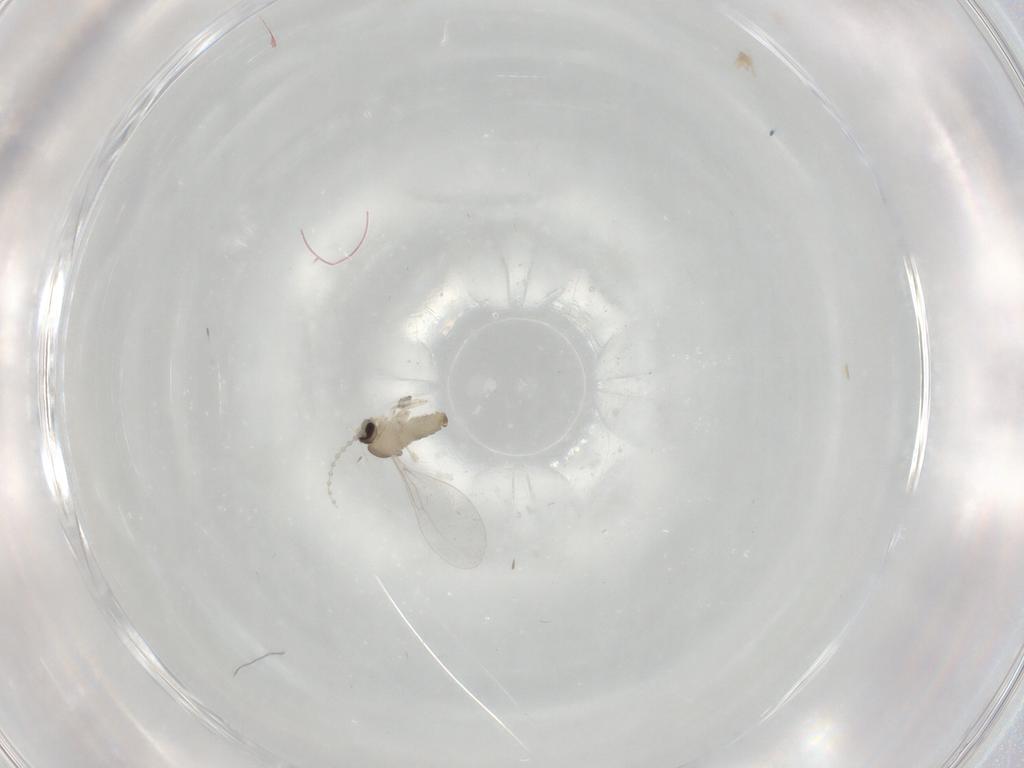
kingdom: Animalia
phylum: Arthropoda
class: Insecta
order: Diptera
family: Cecidomyiidae
